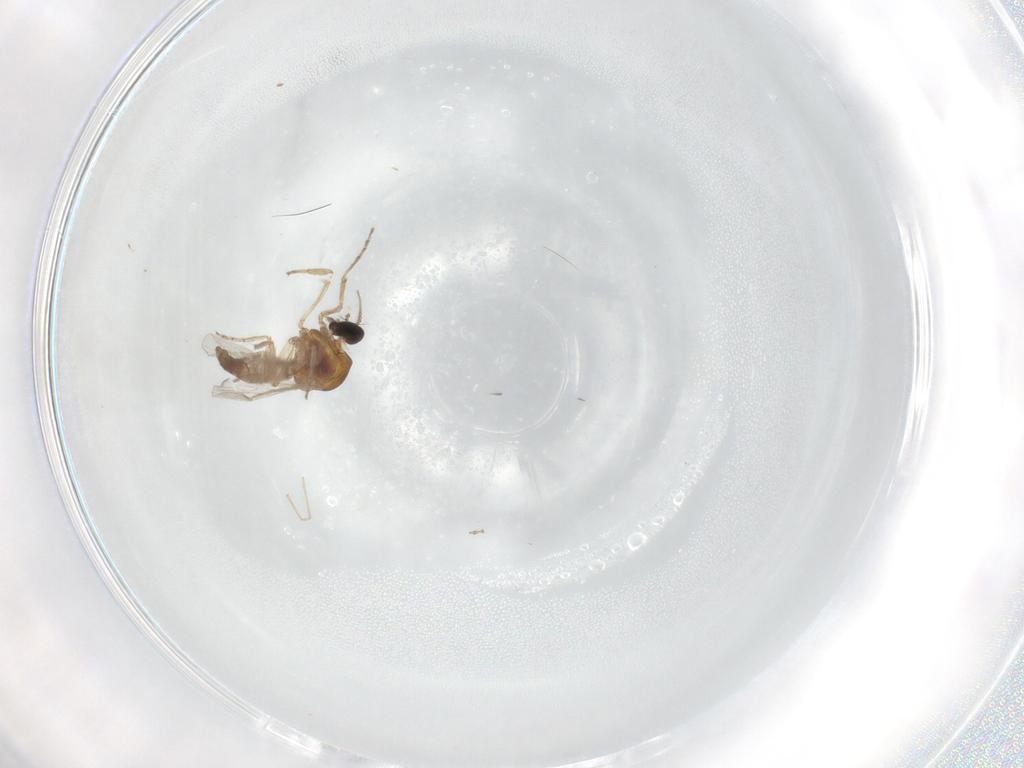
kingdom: Animalia
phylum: Arthropoda
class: Insecta
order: Diptera
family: Ceratopogonidae
